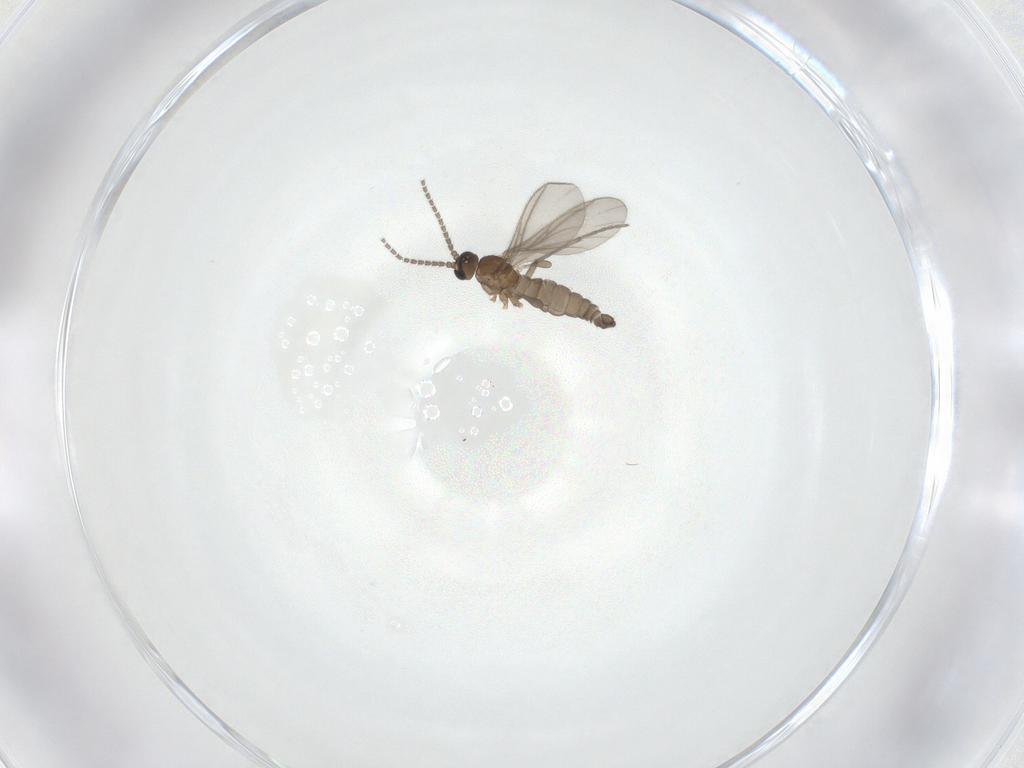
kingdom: Animalia
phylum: Arthropoda
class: Insecta
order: Diptera
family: Sciaridae
